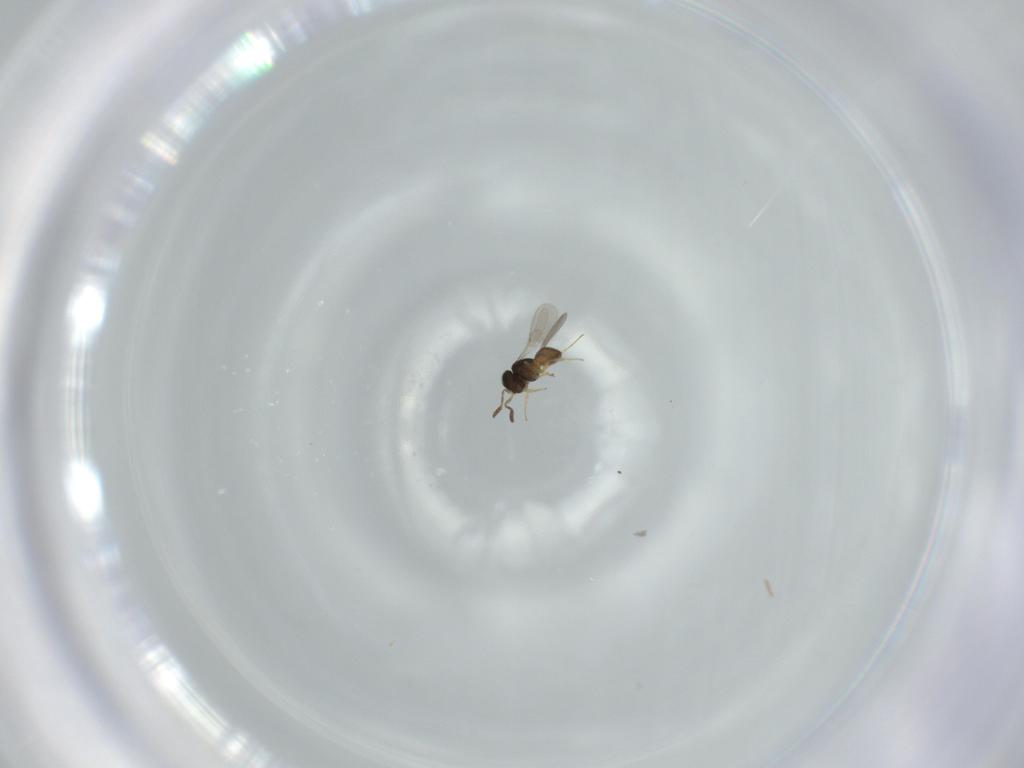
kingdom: Animalia
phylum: Arthropoda
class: Insecta
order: Hymenoptera
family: Scelionidae
